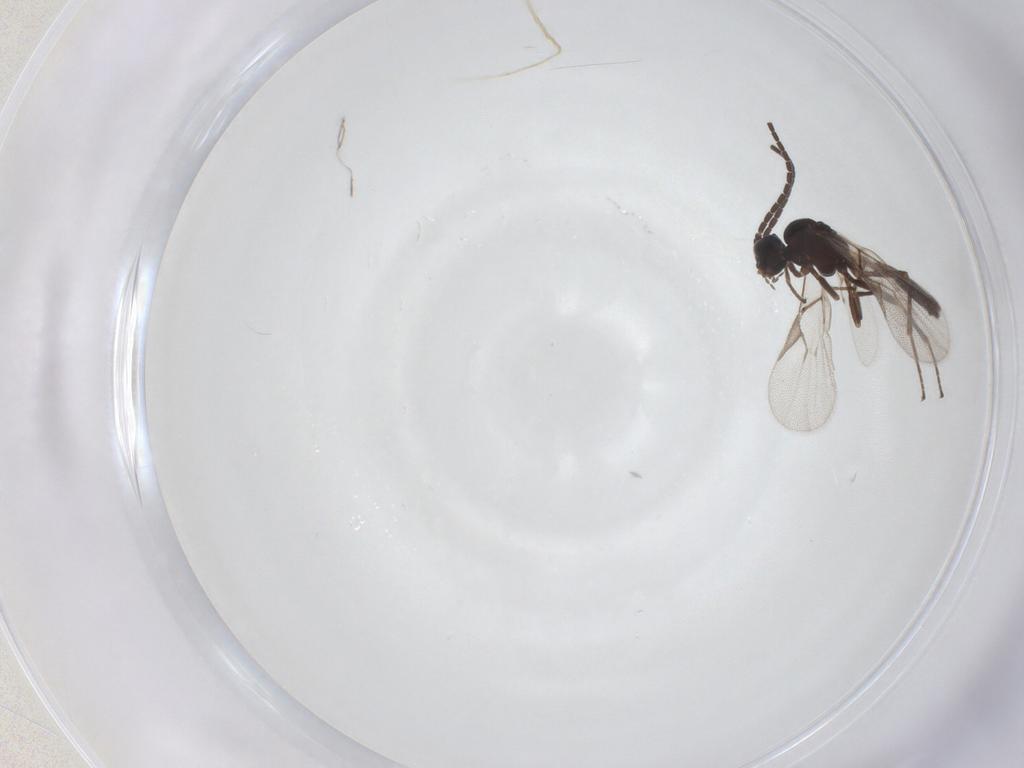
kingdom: Animalia
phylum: Arthropoda
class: Insecta
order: Hymenoptera
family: Braconidae
